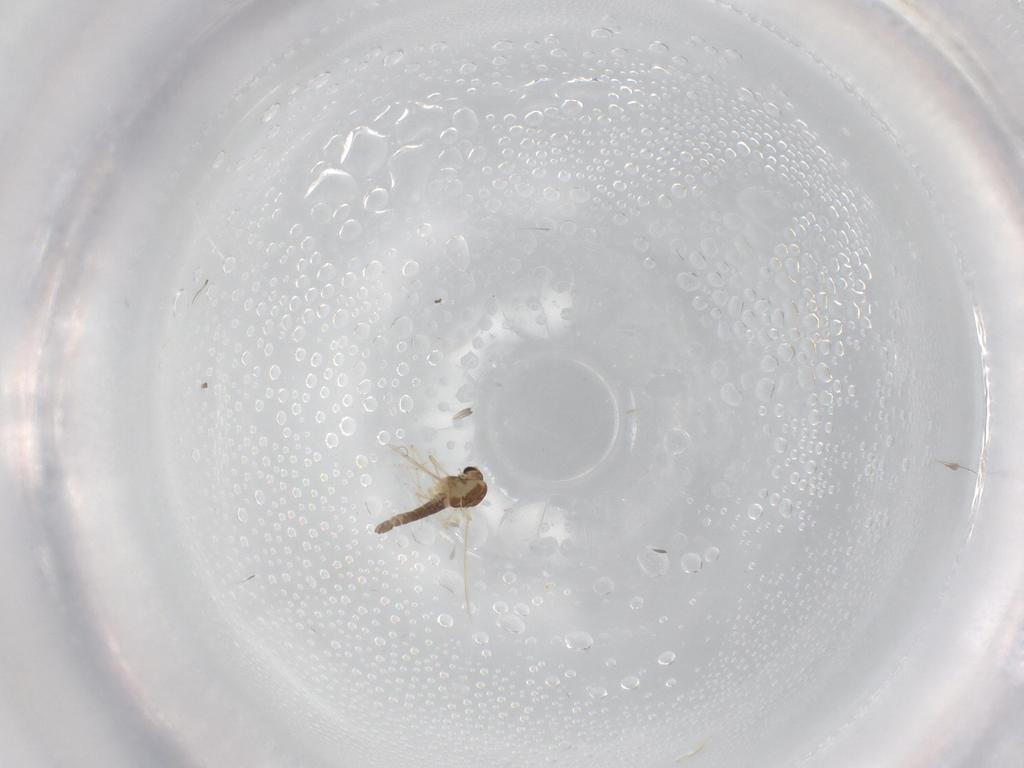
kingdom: Animalia
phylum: Arthropoda
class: Insecta
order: Diptera
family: Chironomidae
